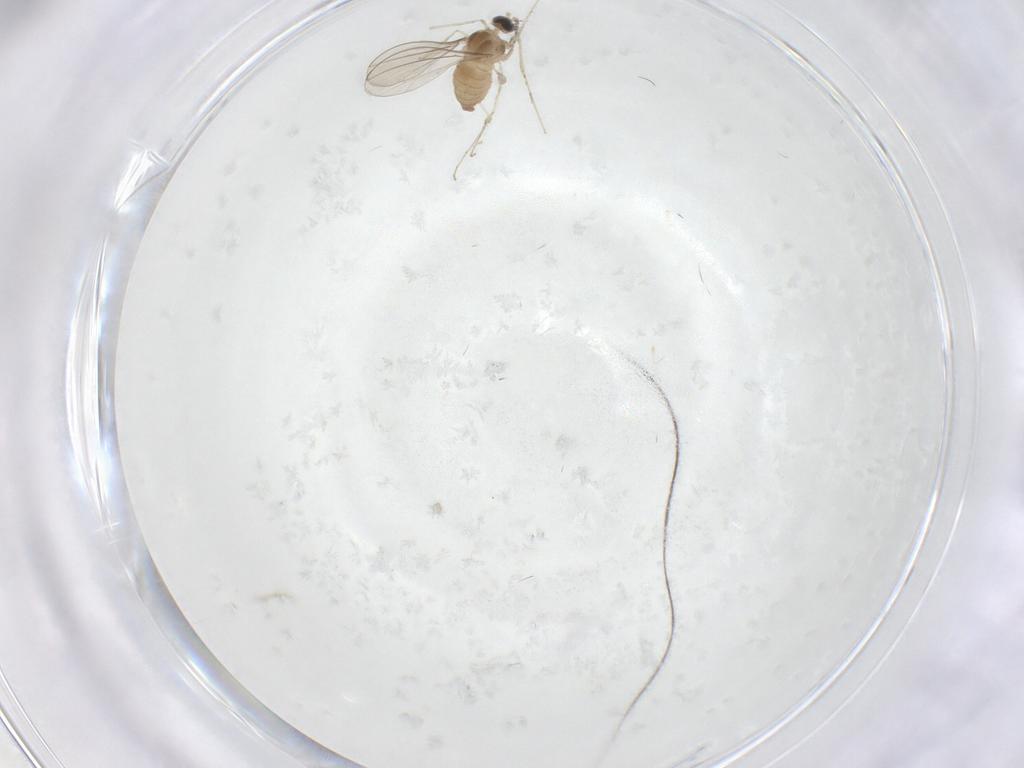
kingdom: Animalia
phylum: Arthropoda
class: Insecta
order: Diptera
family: Cecidomyiidae
